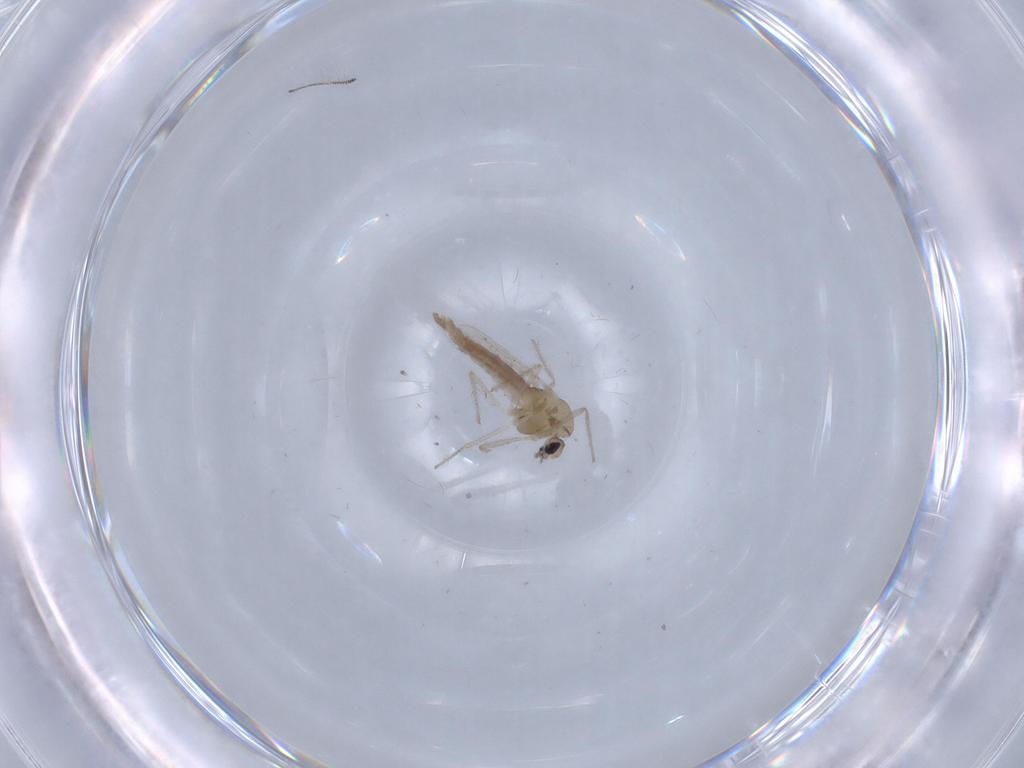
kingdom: Animalia
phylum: Arthropoda
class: Insecta
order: Diptera
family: Chironomidae
